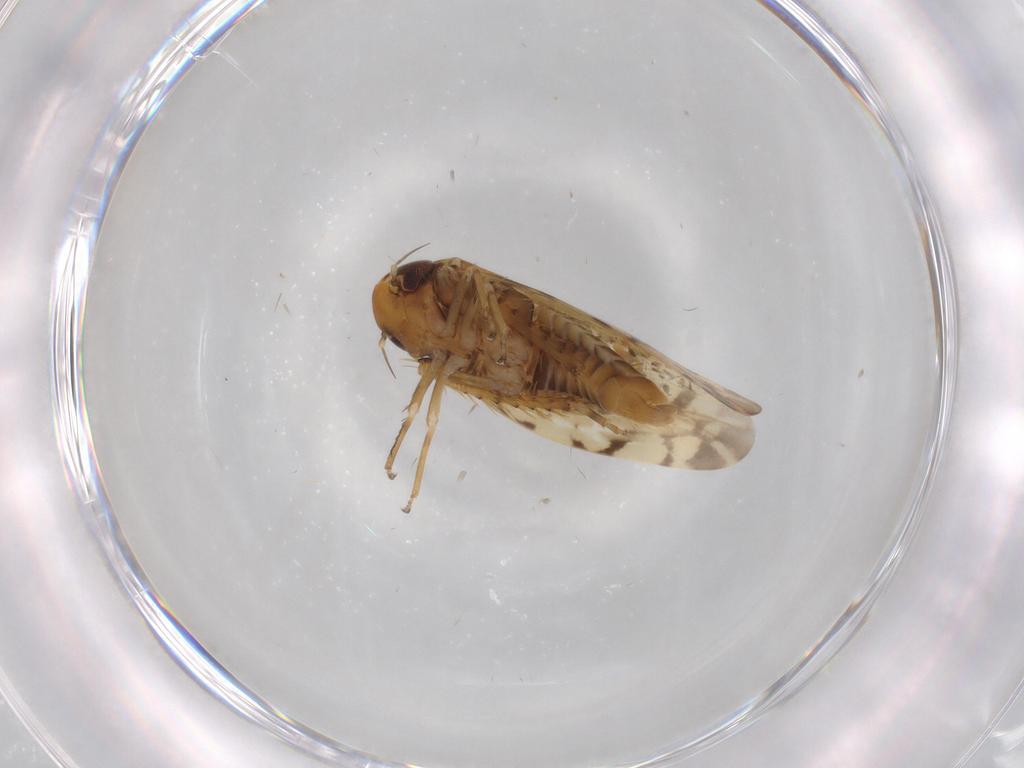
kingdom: Animalia
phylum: Arthropoda
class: Insecta
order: Hemiptera
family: Cicadellidae
